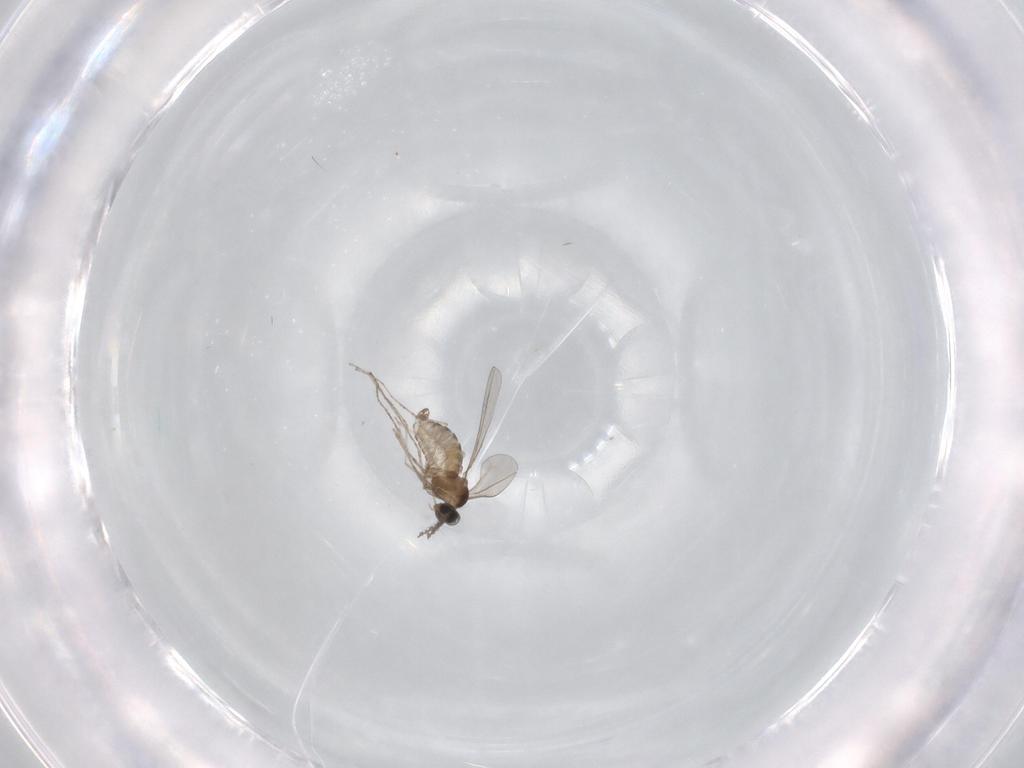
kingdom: Animalia
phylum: Arthropoda
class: Insecta
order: Diptera
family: Cecidomyiidae
